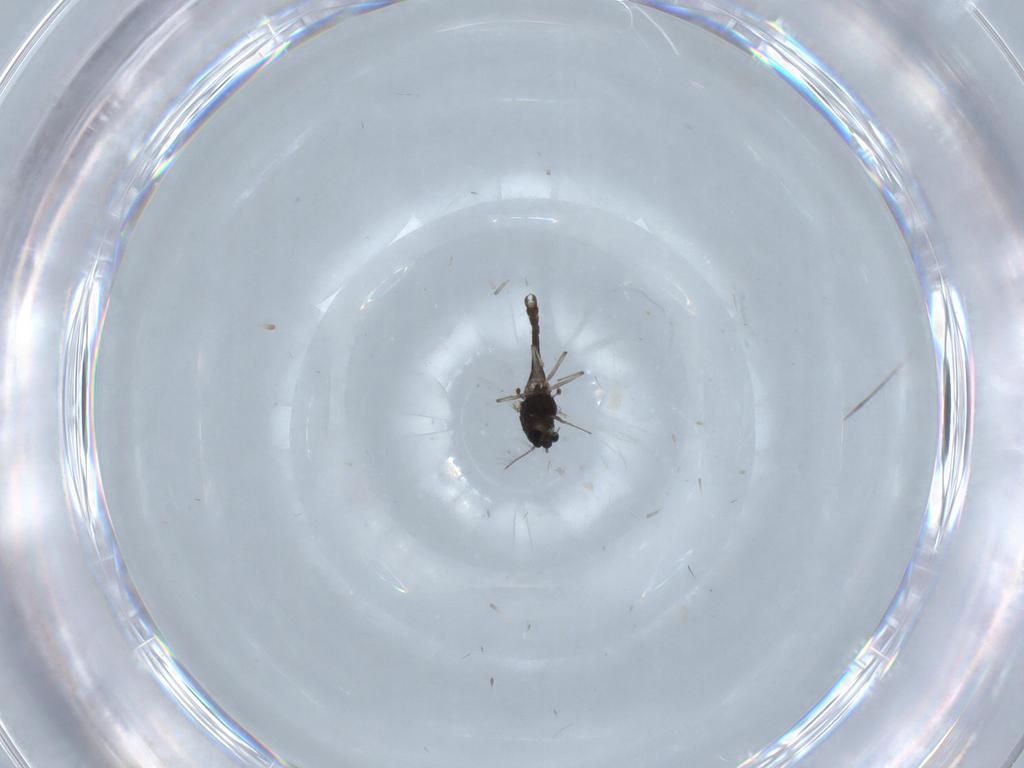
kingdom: Animalia
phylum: Arthropoda
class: Insecta
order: Diptera
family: Chironomidae
